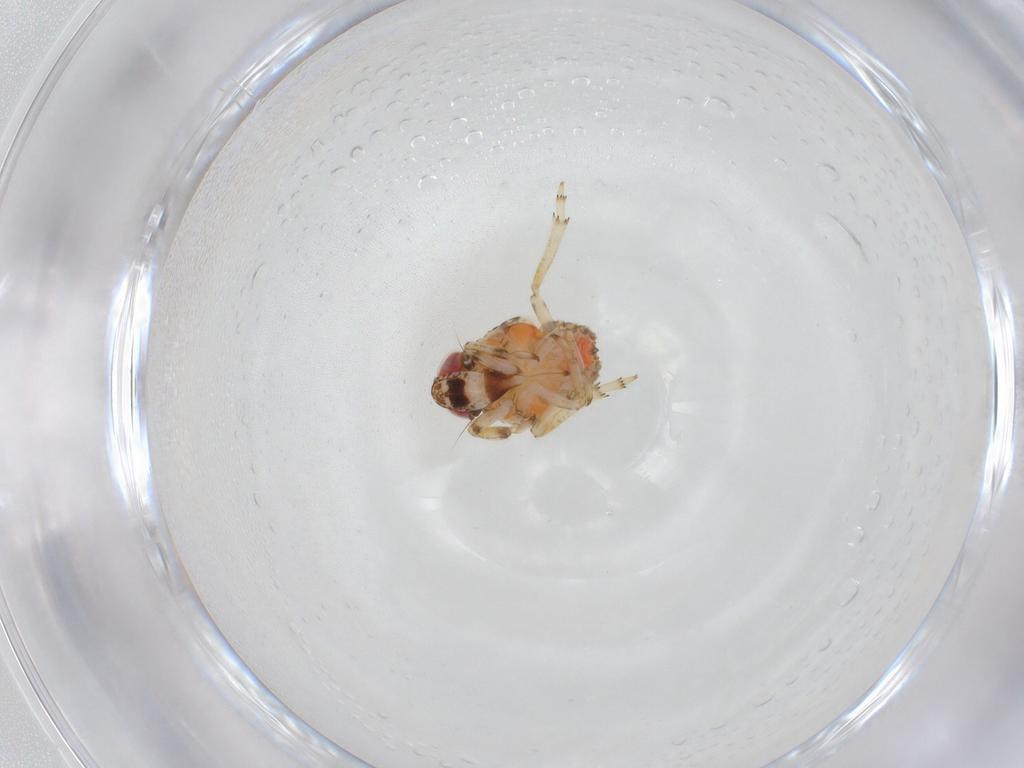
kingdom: Animalia
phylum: Arthropoda
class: Insecta
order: Hemiptera
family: Issidae
